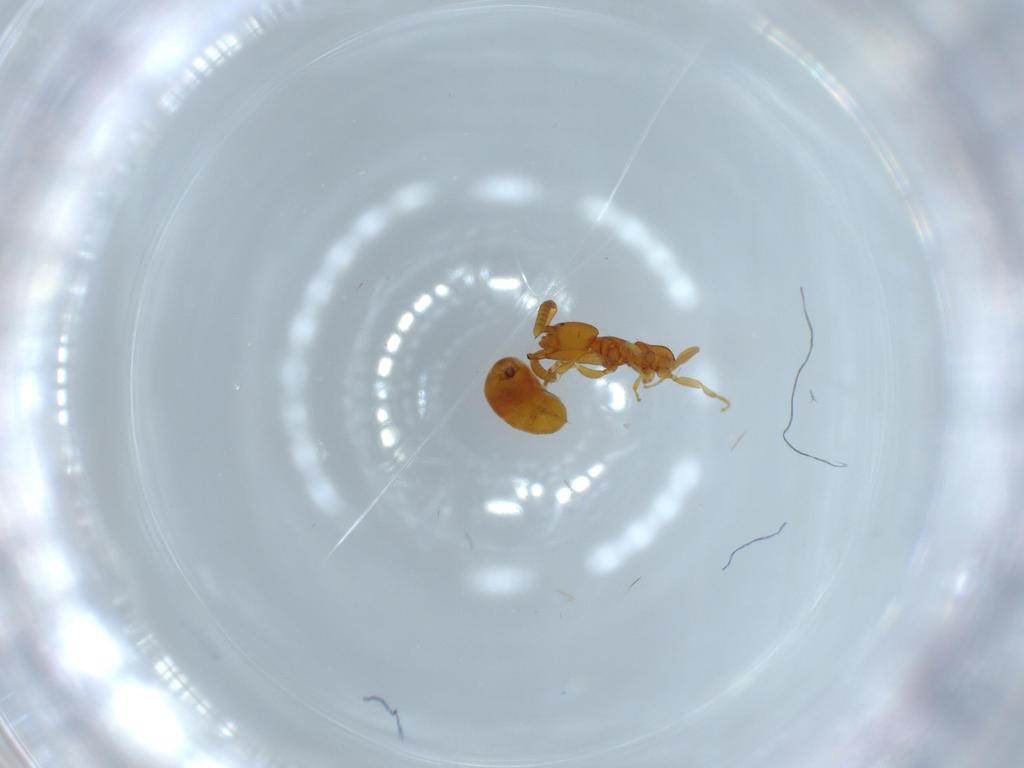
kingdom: Animalia
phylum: Arthropoda
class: Insecta
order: Hymenoptera
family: Bethylidae
